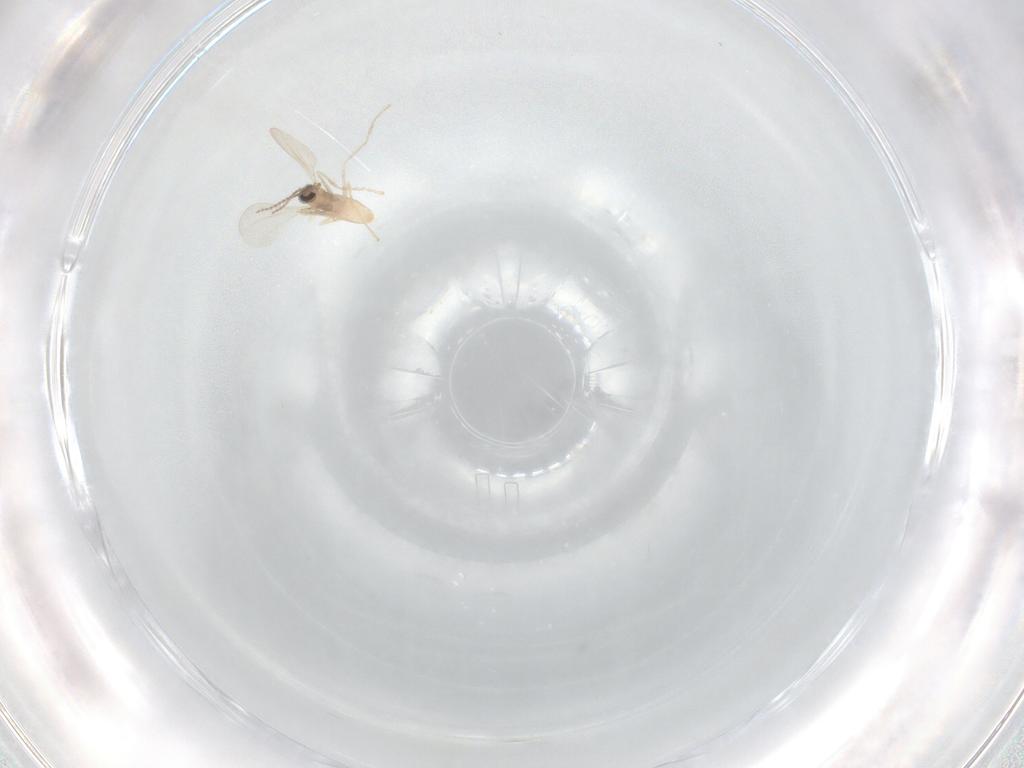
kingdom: Animalia
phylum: Arthropoda
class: Insecta
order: Diptera
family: Cecidomyiidae
